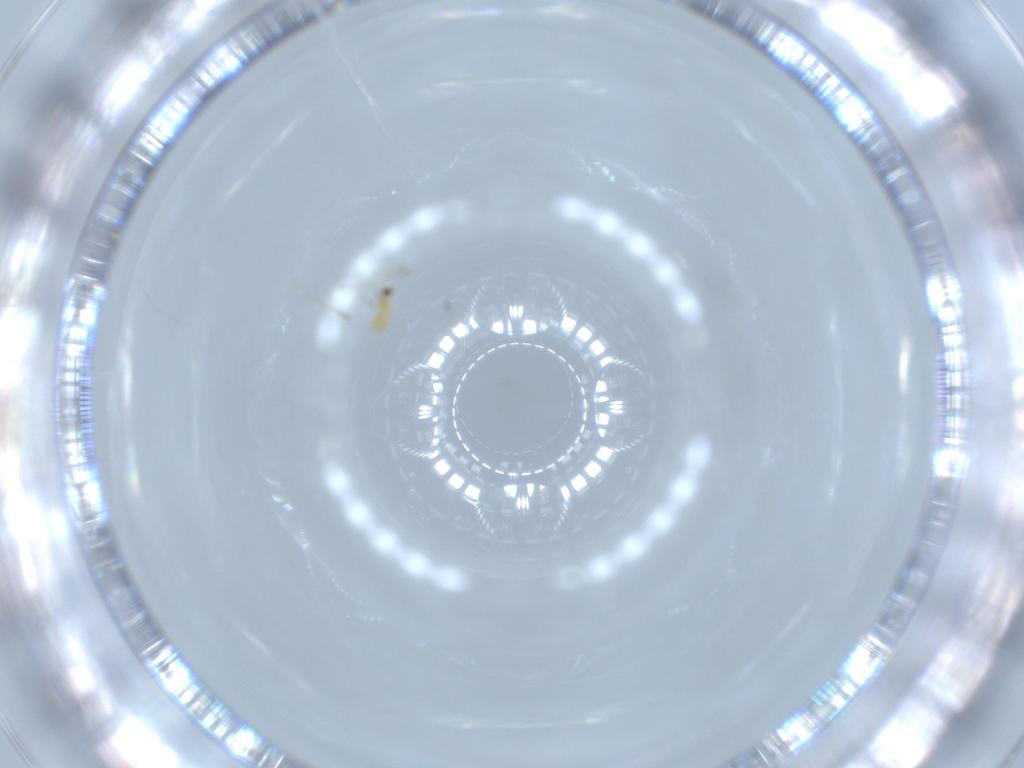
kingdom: Animalia
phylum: Arthropoda
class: Insecta
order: Hymenoptera
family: Mymaridae
